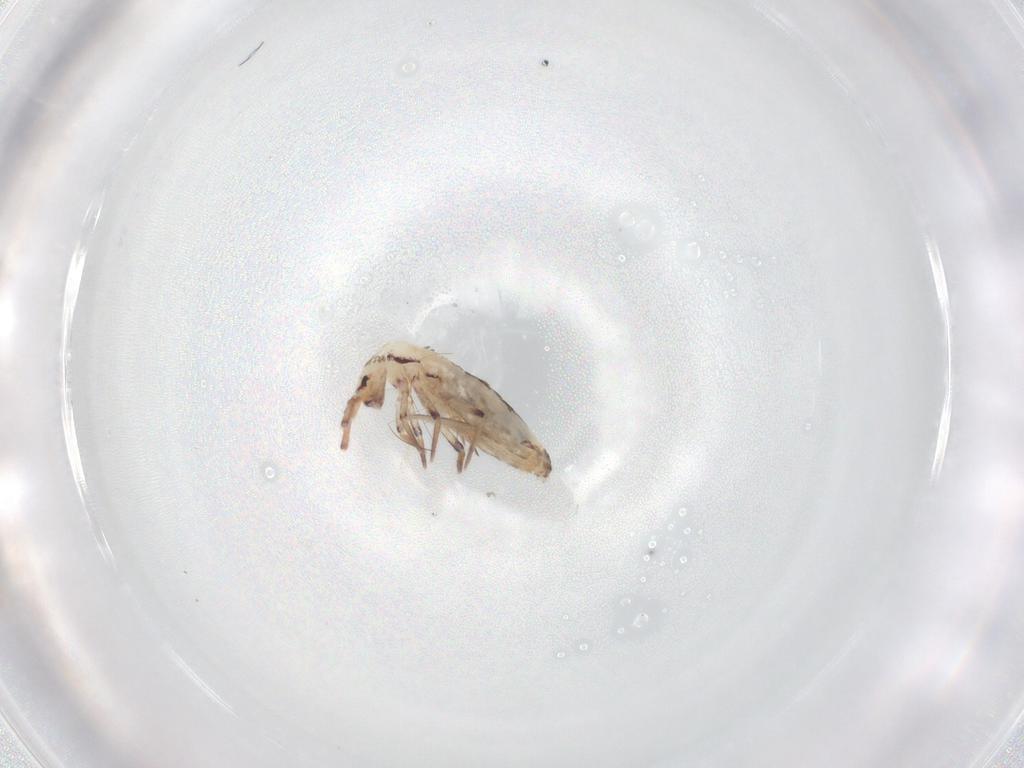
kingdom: Animalia
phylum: Arthropoda
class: Collembola
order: Entomobryomorpha
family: Entomobryidae
